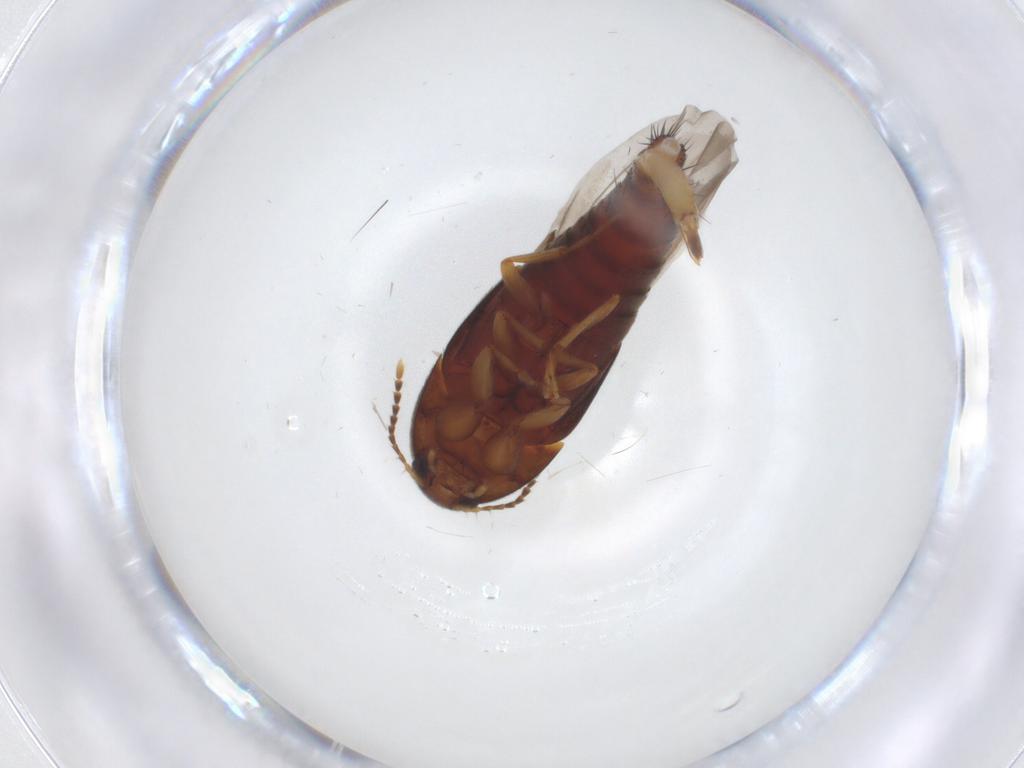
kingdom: Animalia
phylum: Arthropoda
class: Insecta
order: Coleoptera
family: Staphylinidae
